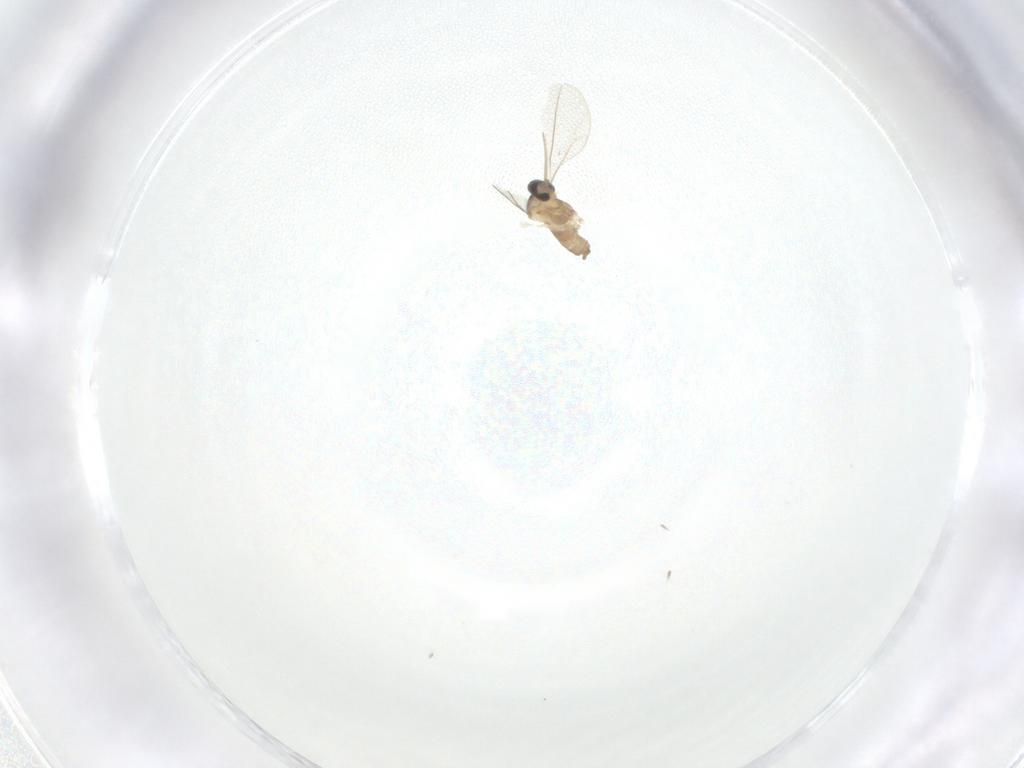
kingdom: Animalia
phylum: Arthropoda
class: Insecta
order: Diptera
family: Cecidomyiidae
